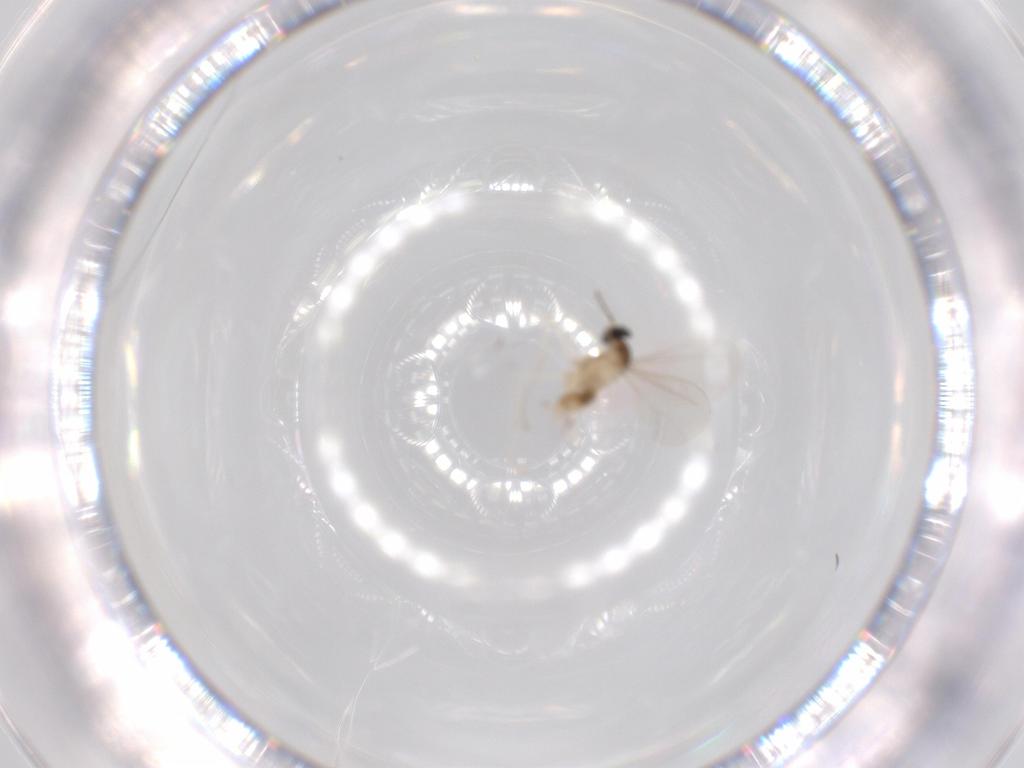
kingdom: Animalia
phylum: Arthropoda
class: Insecta
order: Diptera
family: Cecidomyiidae
